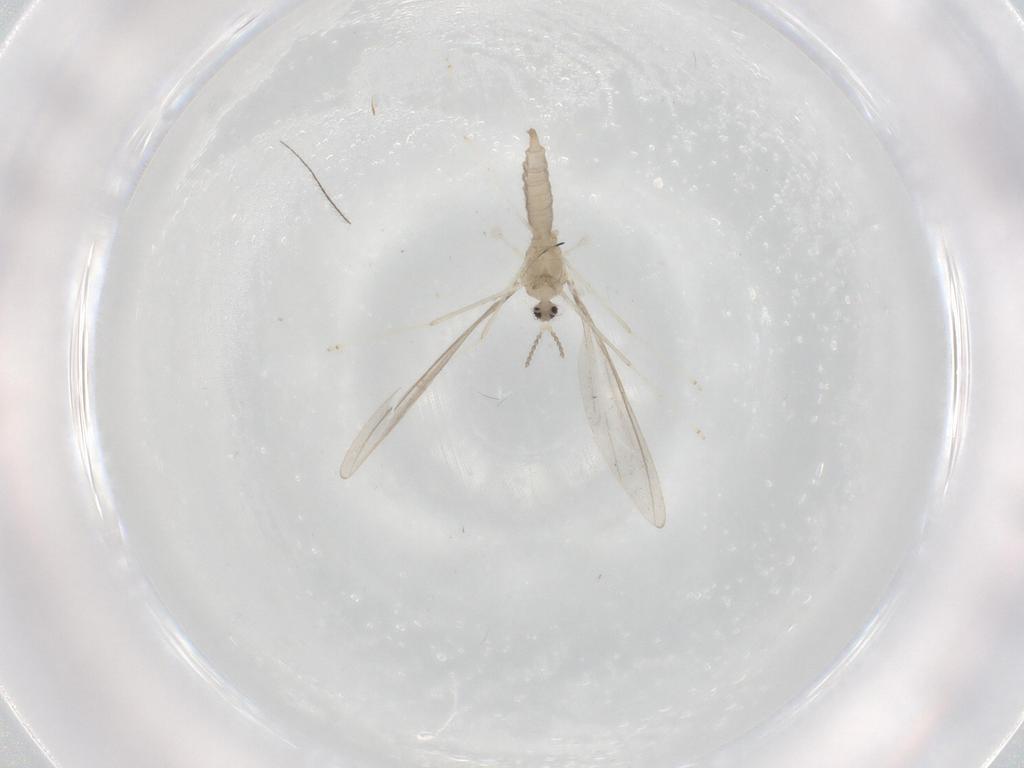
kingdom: Animalia
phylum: Arthropoda
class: Insecta
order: Diptera
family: Cecidomyiidae
